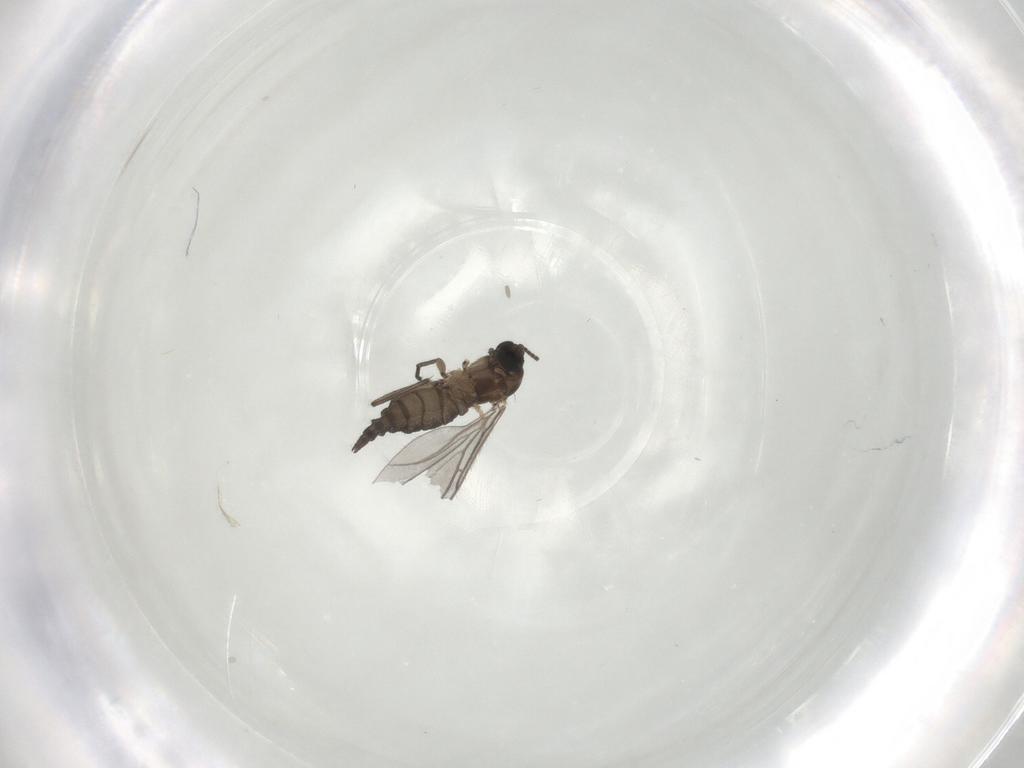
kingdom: Animalia
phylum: Arthropoda
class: Insecta
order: Diptera
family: Sciaridae
